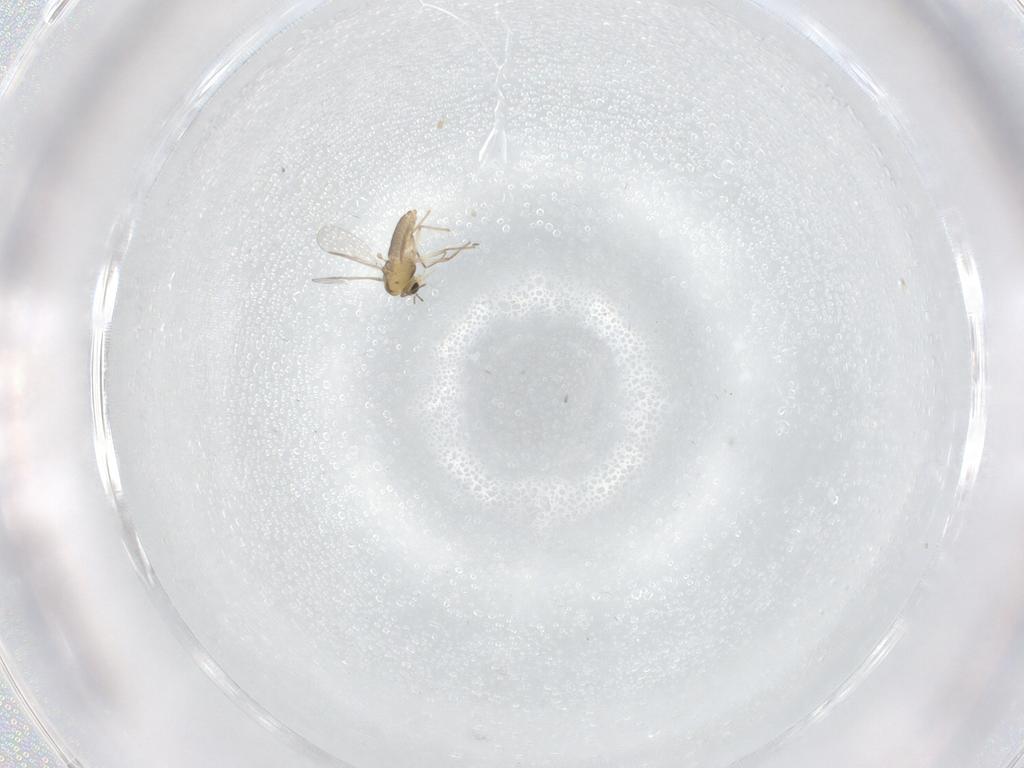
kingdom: Animalia
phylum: Arthropoda
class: Insecta
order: Diptera
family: Chironomidae
